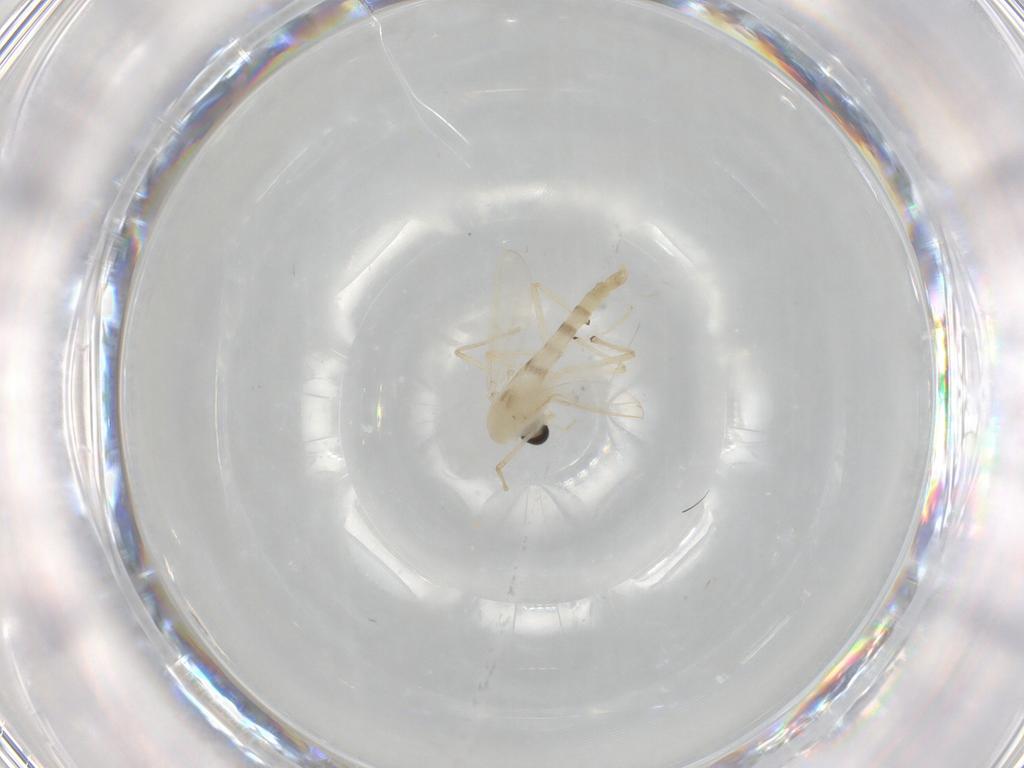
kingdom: Animalia
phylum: Arthropoda
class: Insecta
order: Diptera
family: Chironomidae
